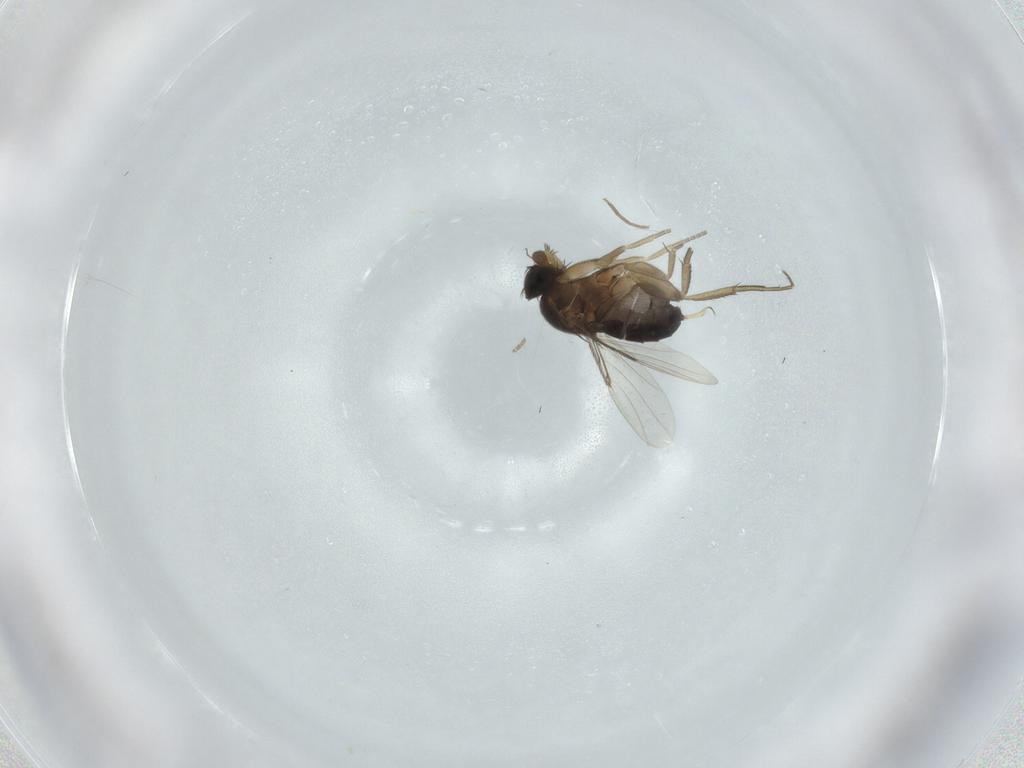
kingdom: Animalia
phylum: Arthropoda
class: Insecta
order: Diptera
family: Phoridae
